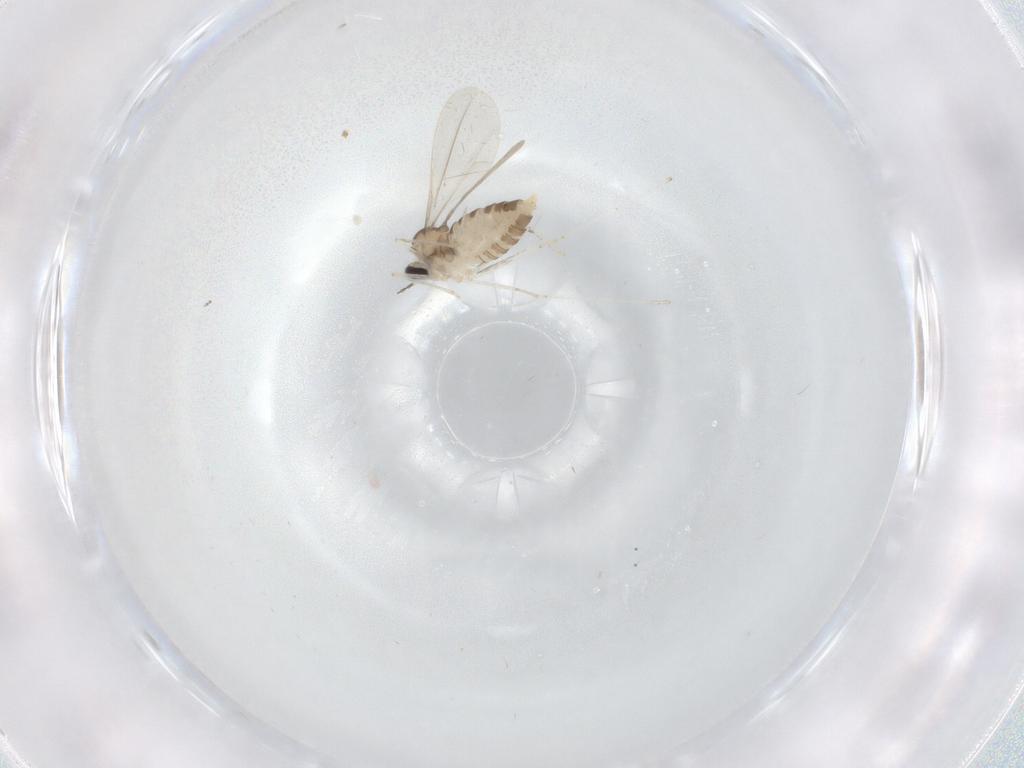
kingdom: Animalia
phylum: Arthropoda
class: Insecta
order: Diptera
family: Cecidomyiidae
